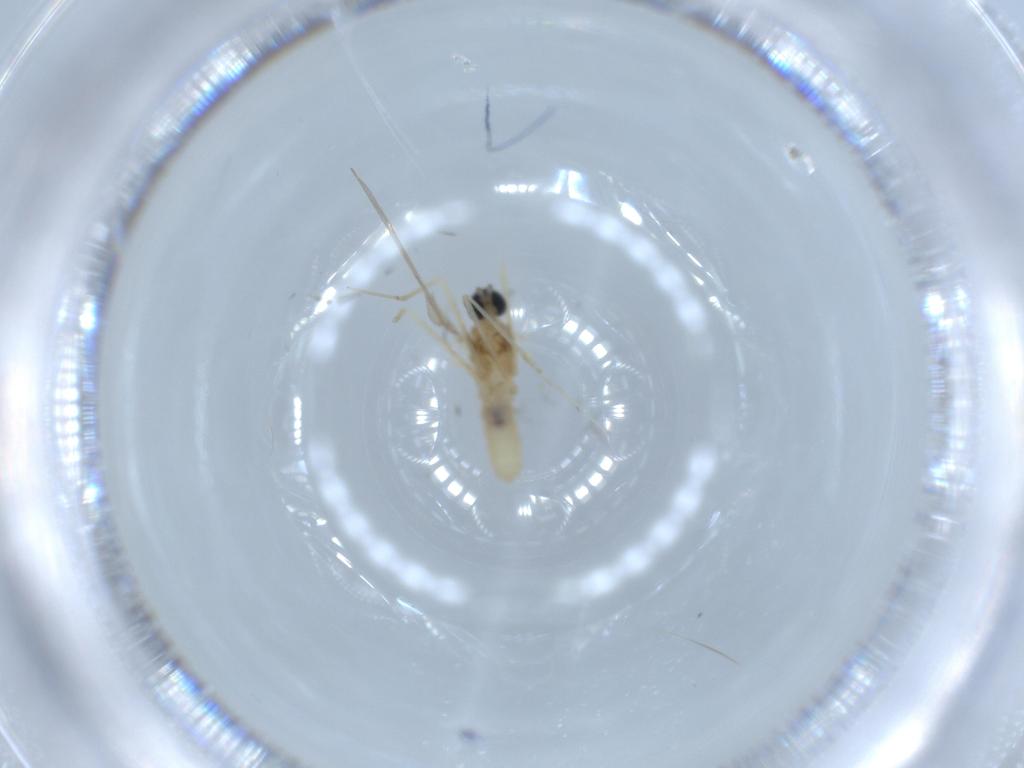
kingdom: Animalia
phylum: Arthropoda
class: Insecta
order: Diptera
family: Cecidomyiidae
